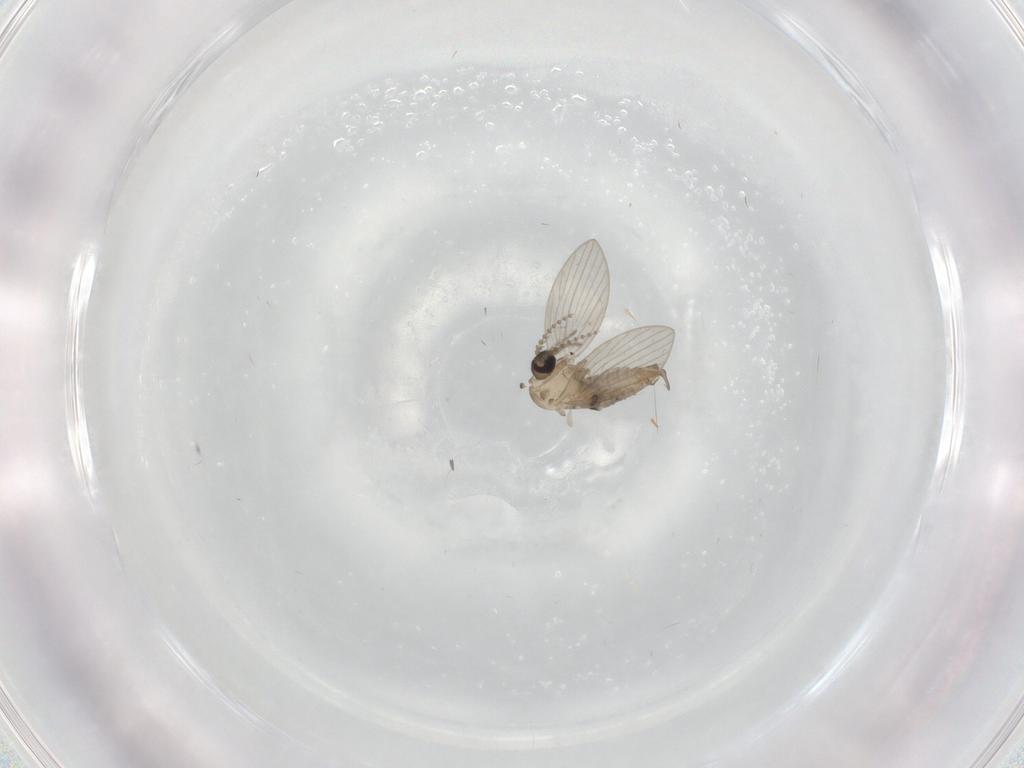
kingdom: Animalia
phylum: Arthropoda
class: Insecta
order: Diptera
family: Psychodidae
